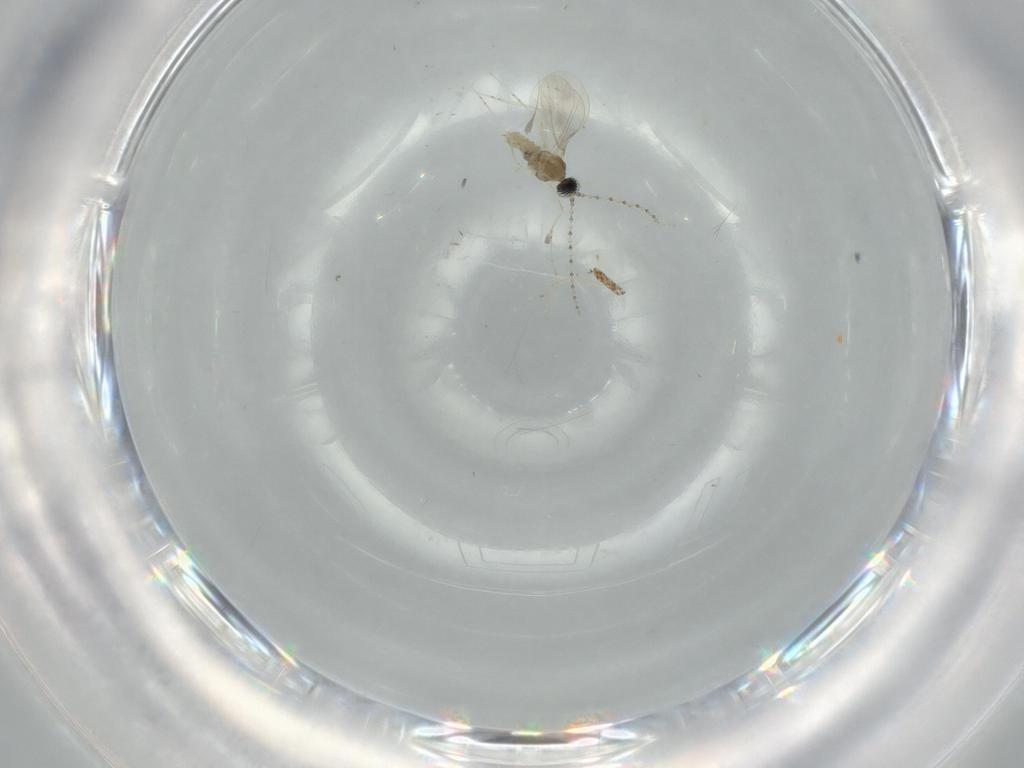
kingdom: Animalia
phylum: Arthropoda
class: Insecta
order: Diptera
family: Cecidomyiidae
